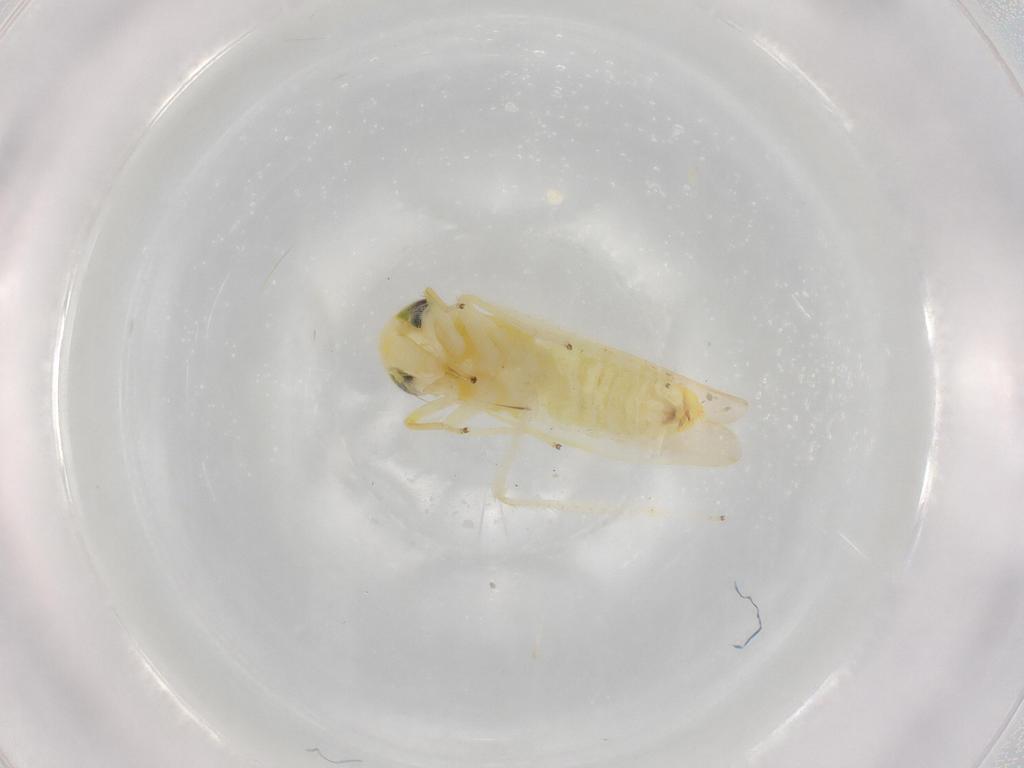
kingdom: Animalia
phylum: Arthropoda
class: Insecta
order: Hemiptera
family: Cicadellidae
